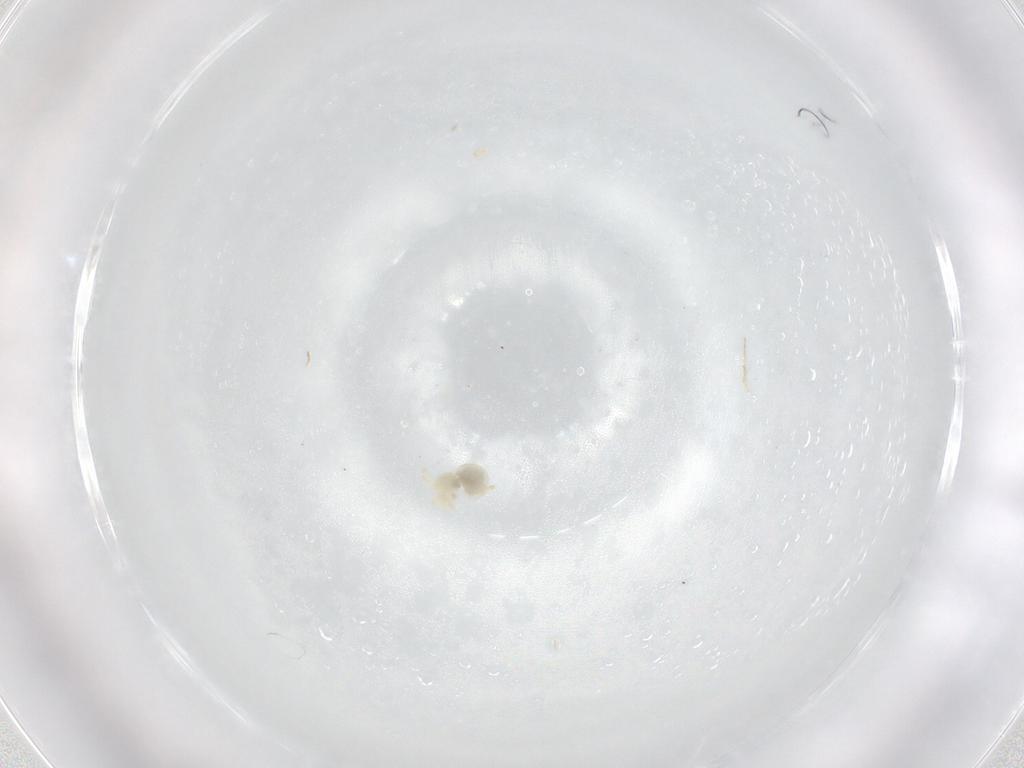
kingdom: Animalia
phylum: Arthropoda
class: Arachnida
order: Trombidiformes
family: Sperchontidae
